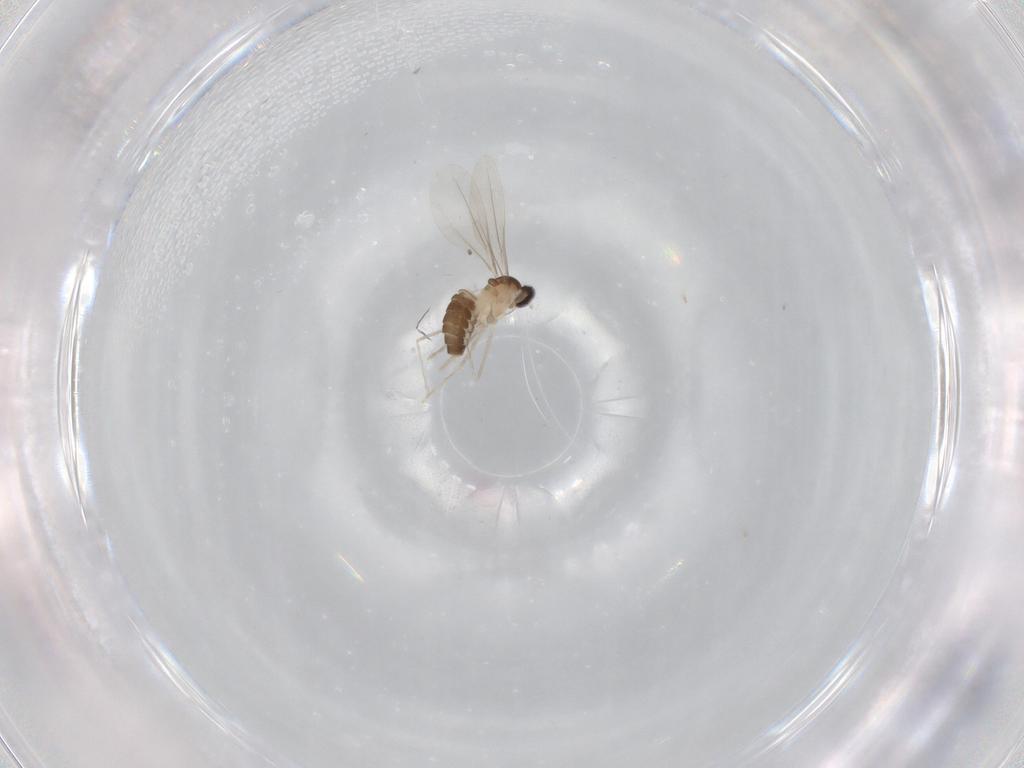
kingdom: Animalia
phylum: Arthropoda
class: Insecta
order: Diptera
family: Cecidomyiidae
